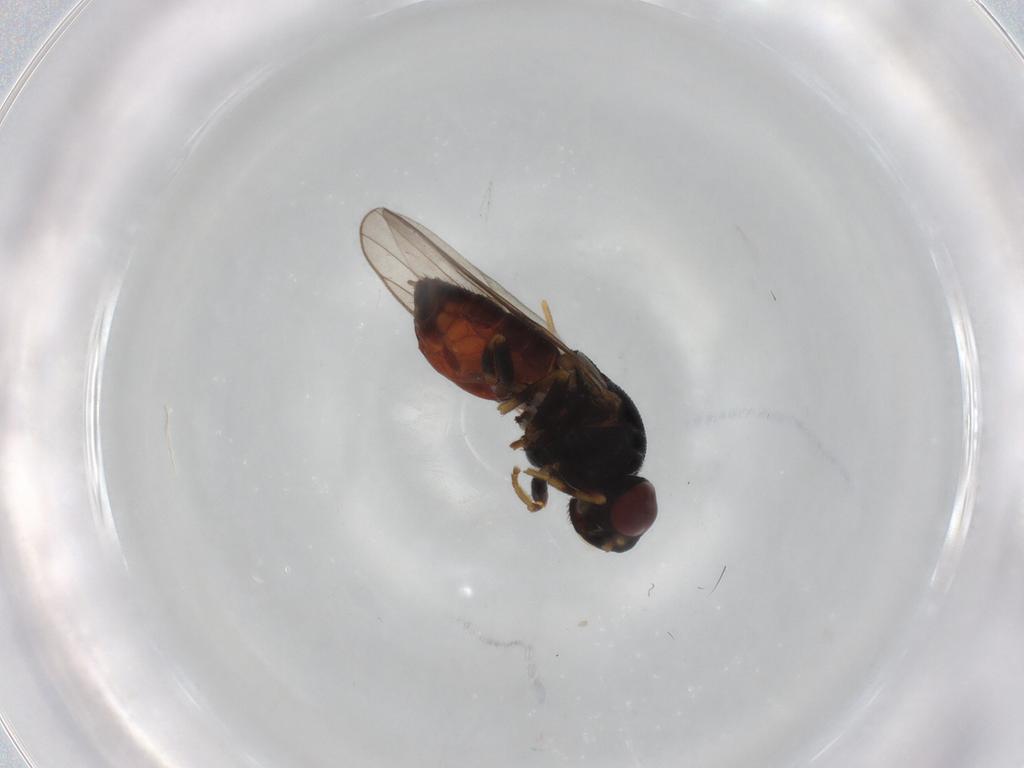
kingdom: Animalia
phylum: Arthropoda
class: Insecta
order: Diptera
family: Chloropidae
